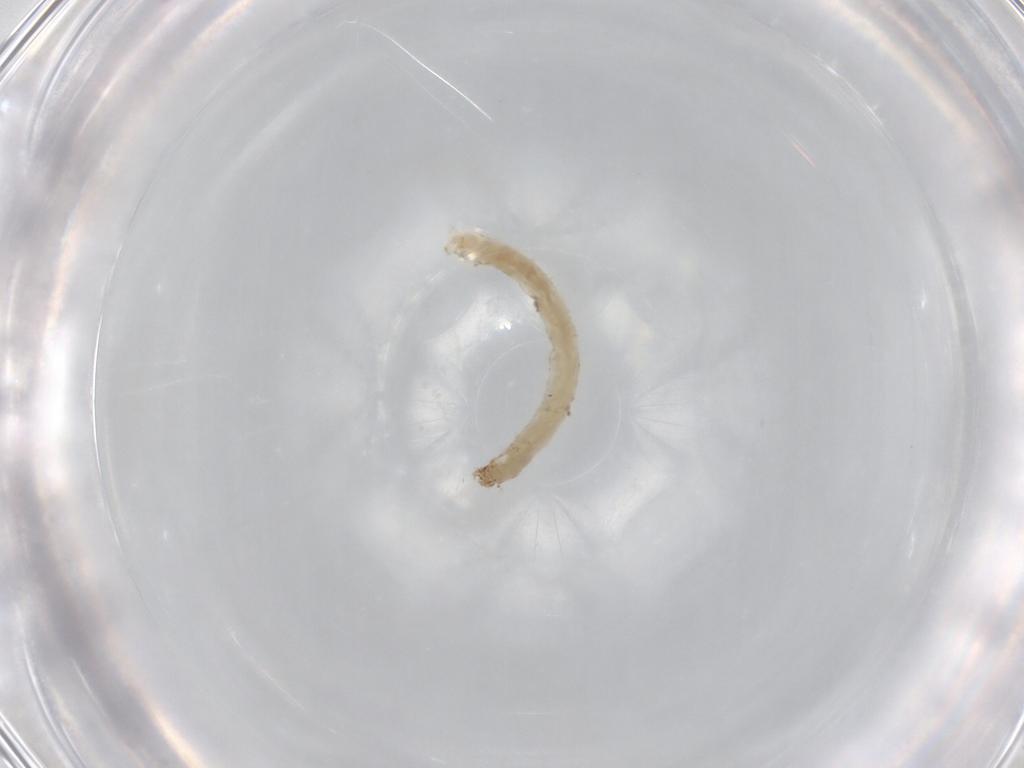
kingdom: Animalia
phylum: Arthropoda
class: Insecta
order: Diptera
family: Chironomidae
